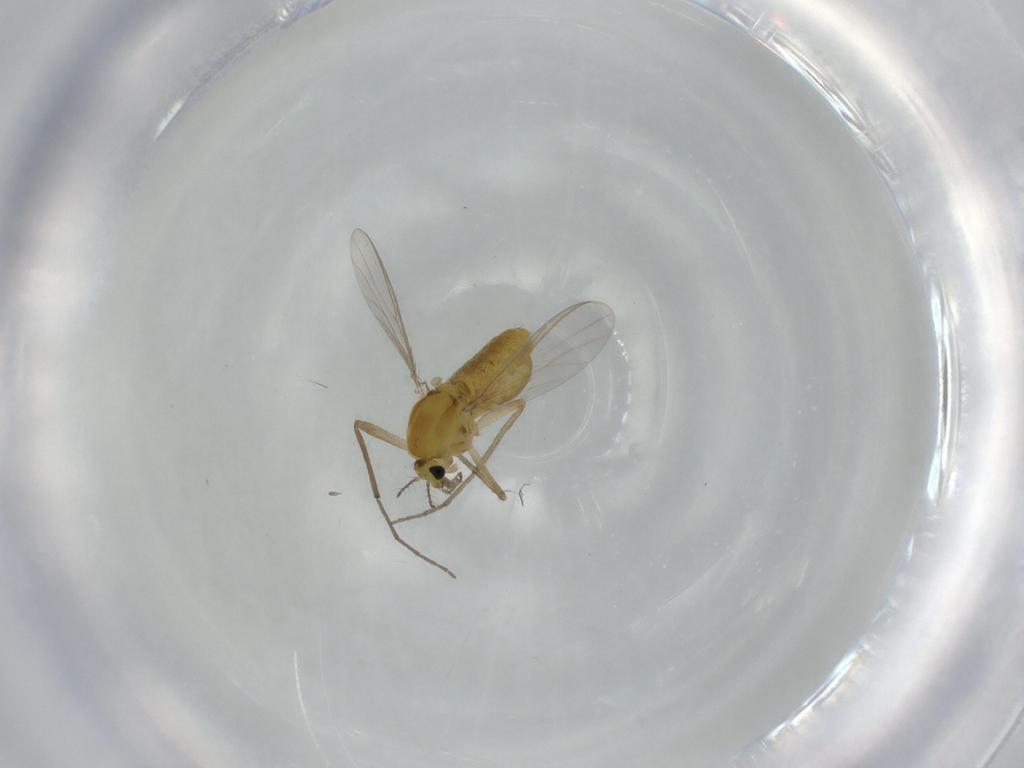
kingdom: Animalia
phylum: Arthropoda
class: Insecta
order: Diptera
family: Chironomidae
